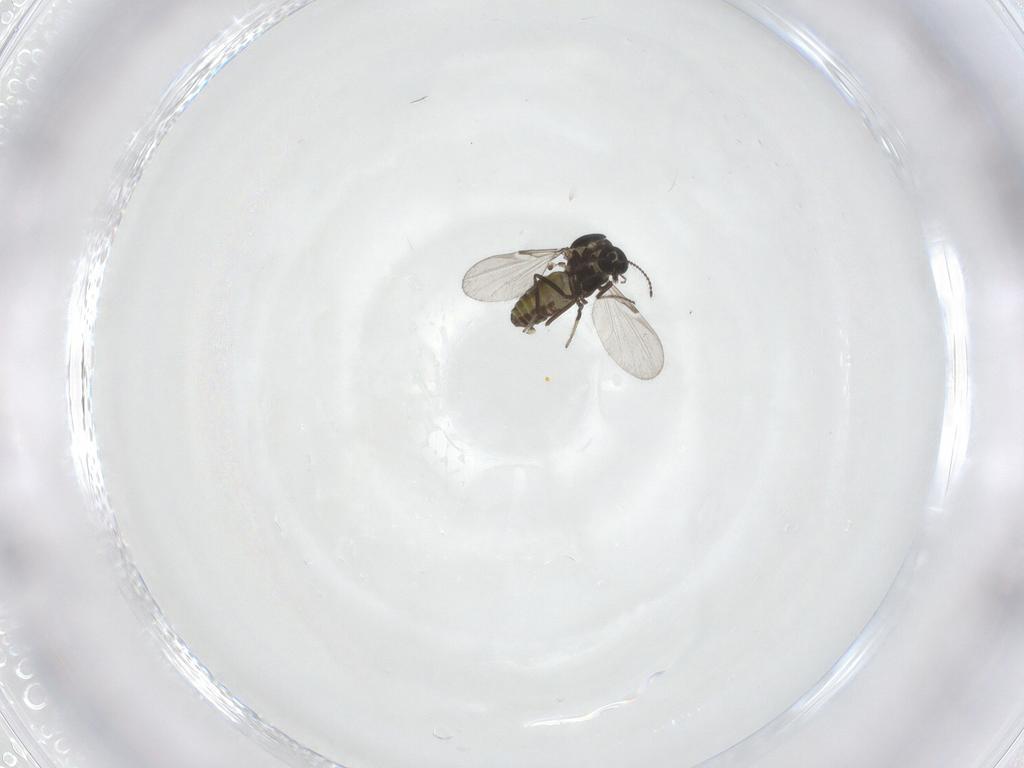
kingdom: Animalia
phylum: Arthropoda
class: Insecta
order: Diptera
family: Ceratopogonidae
